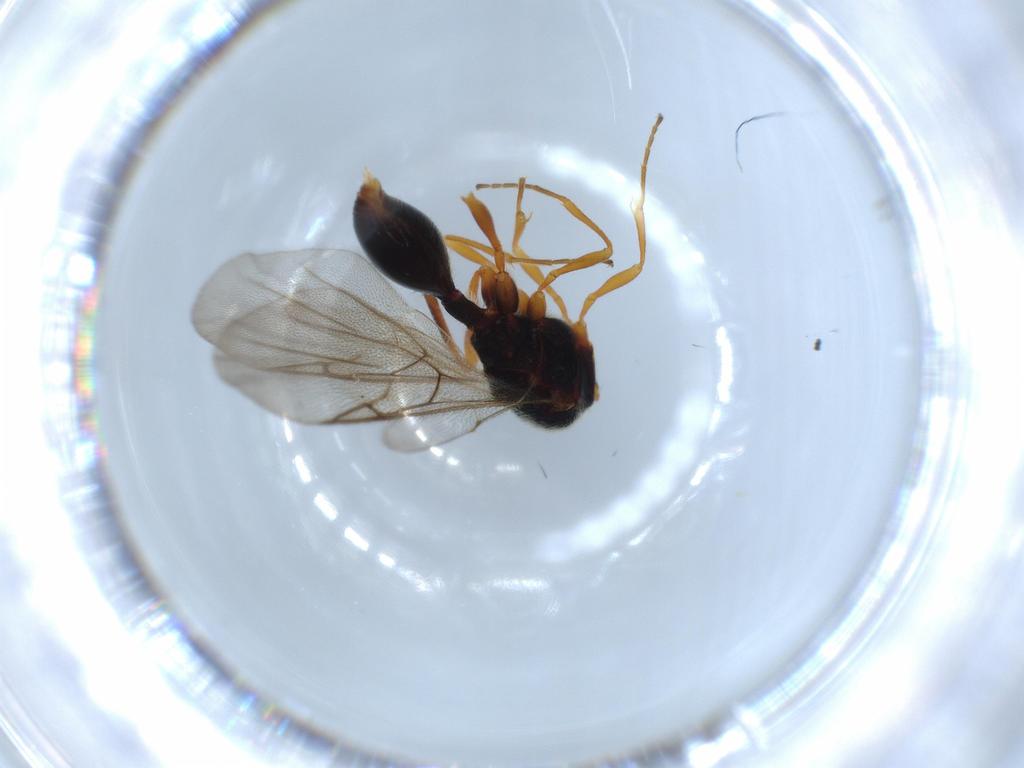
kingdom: Animalia
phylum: Arthropoda
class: Insecta
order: Hymenoptera
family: Diapriidae
